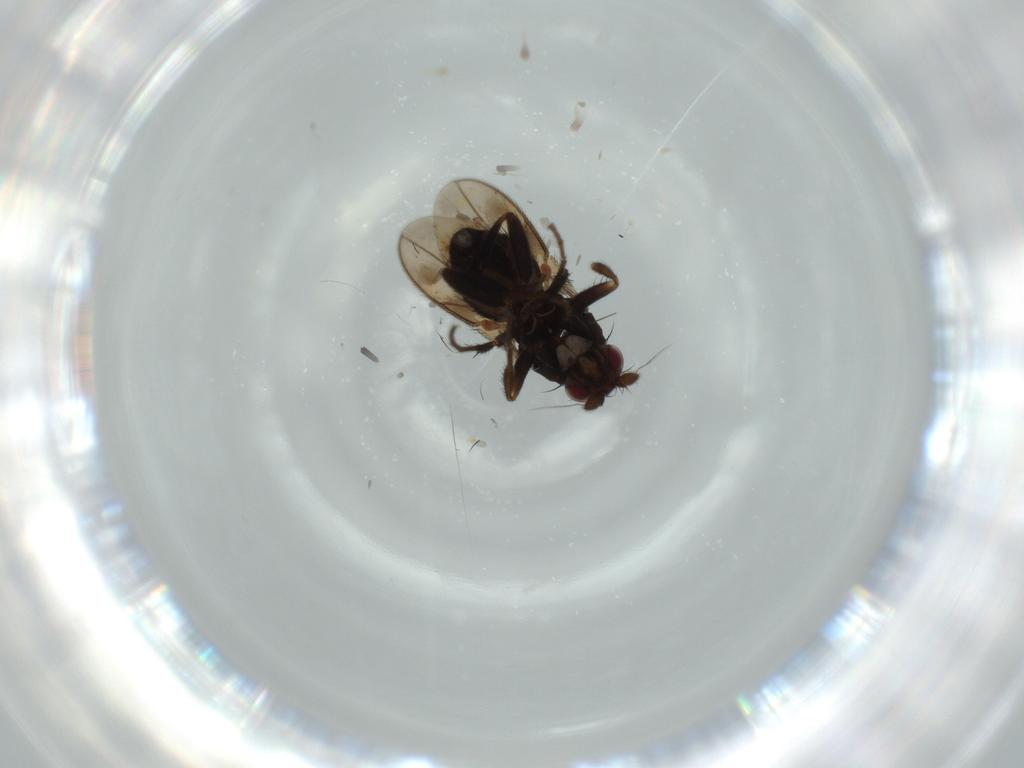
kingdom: Animalia
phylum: Arthropoda
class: Insecta
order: Diptera
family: Sphaeroceridae
